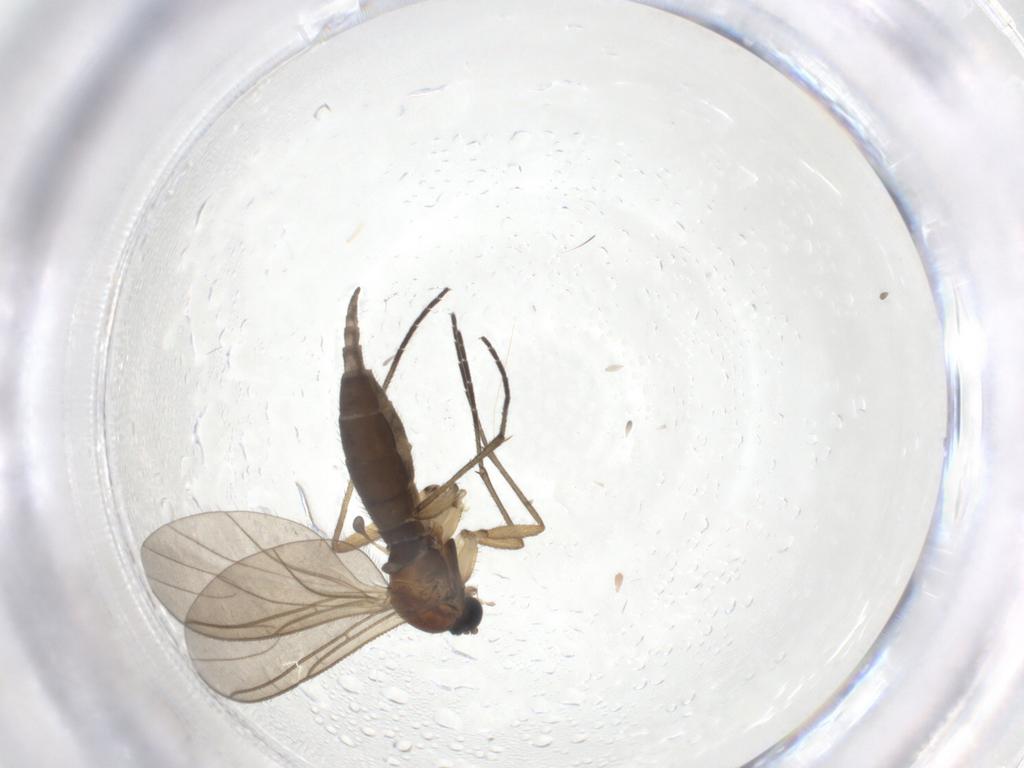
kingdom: Animalia
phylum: Arthropoda
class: Insecta
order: Diptera
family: Sciaridae
